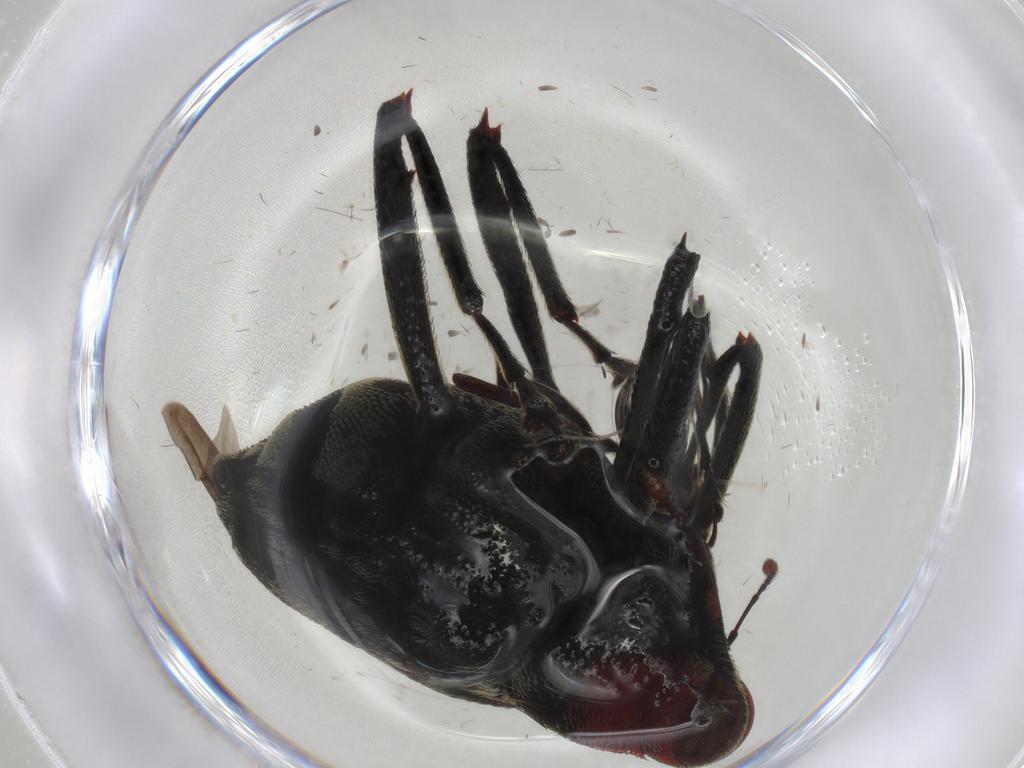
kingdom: Animalia
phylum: Arthropoda
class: Insecta
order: Coleoptera
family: Curculionidae
